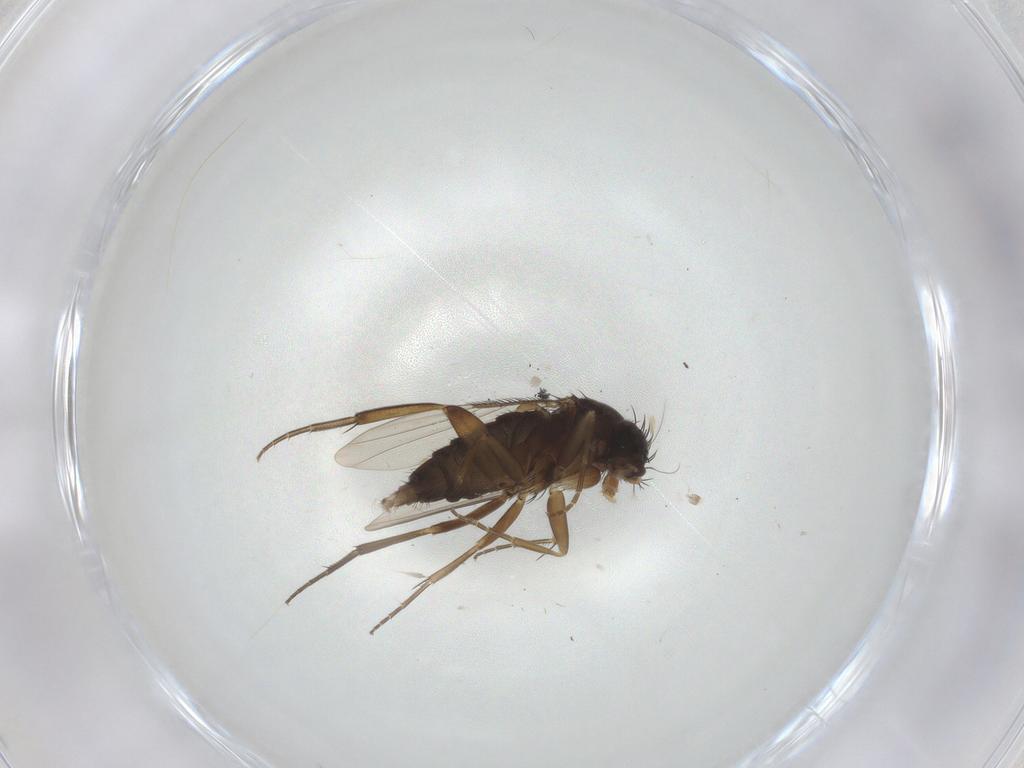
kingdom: Animalia
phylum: Arthropoda
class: Insecta
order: Diptera
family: Phoridae
